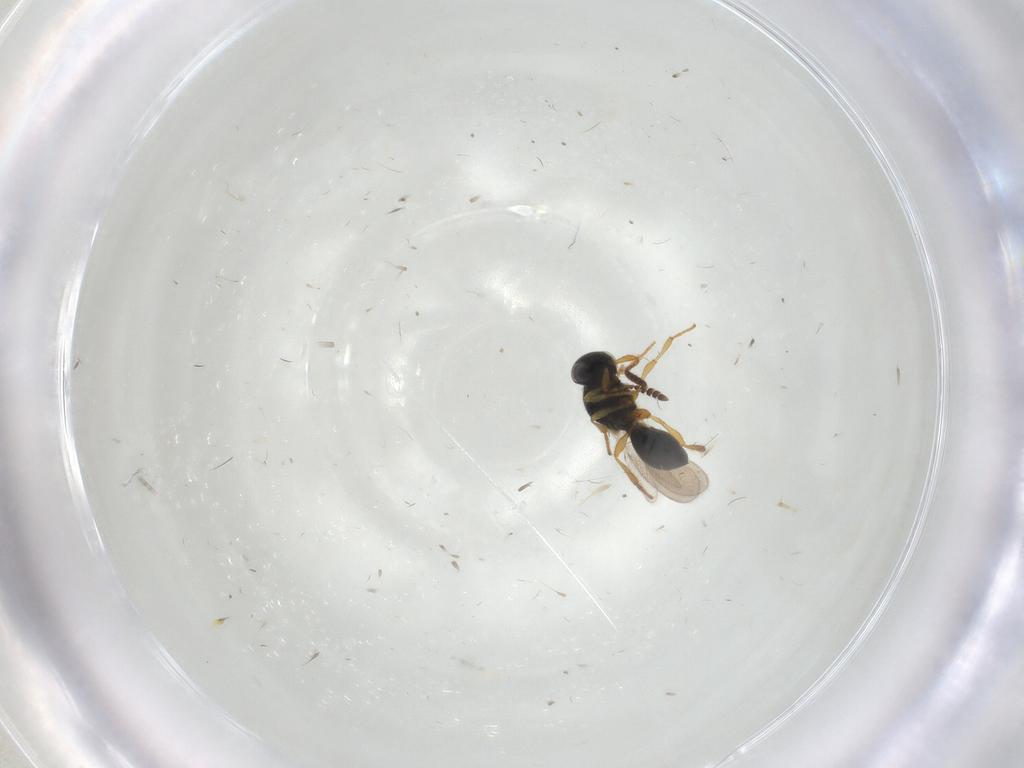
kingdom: Animalia
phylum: Arthropoda
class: Insecta
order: Hymenoptera
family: Platygastridae
